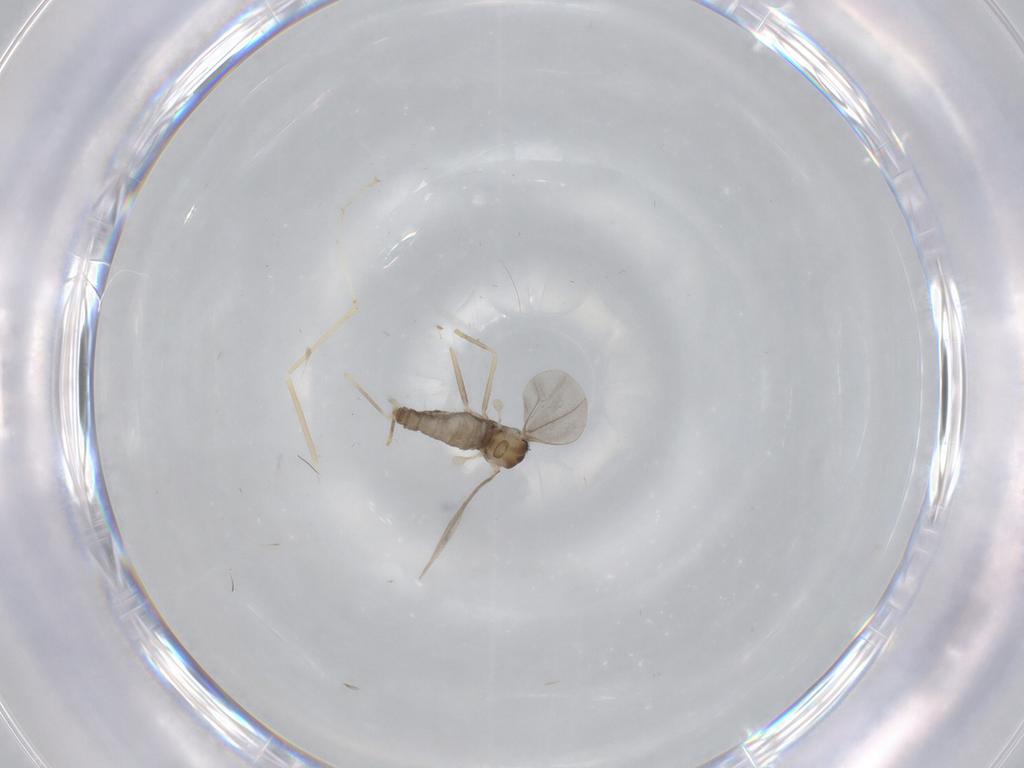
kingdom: Animalia
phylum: Arthropoda
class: Insecta
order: Diptera
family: Cecidomyiidae
